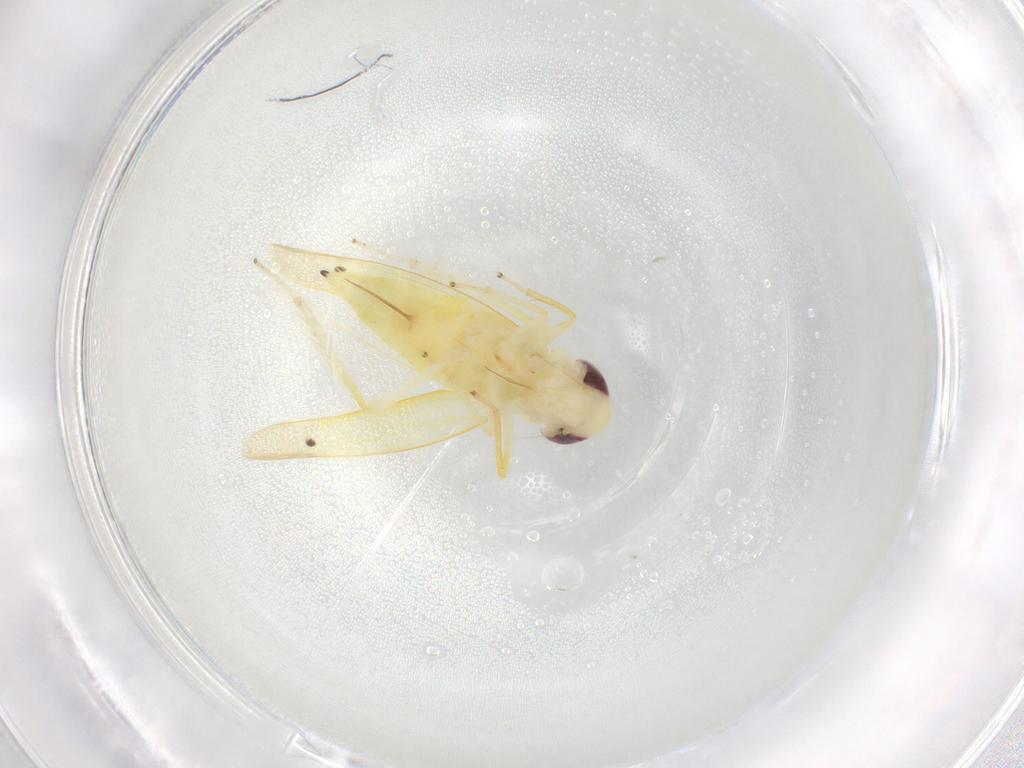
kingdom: Animalia
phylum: Arthropoda
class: Insecta
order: Hemiptera
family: Cicadellidae
